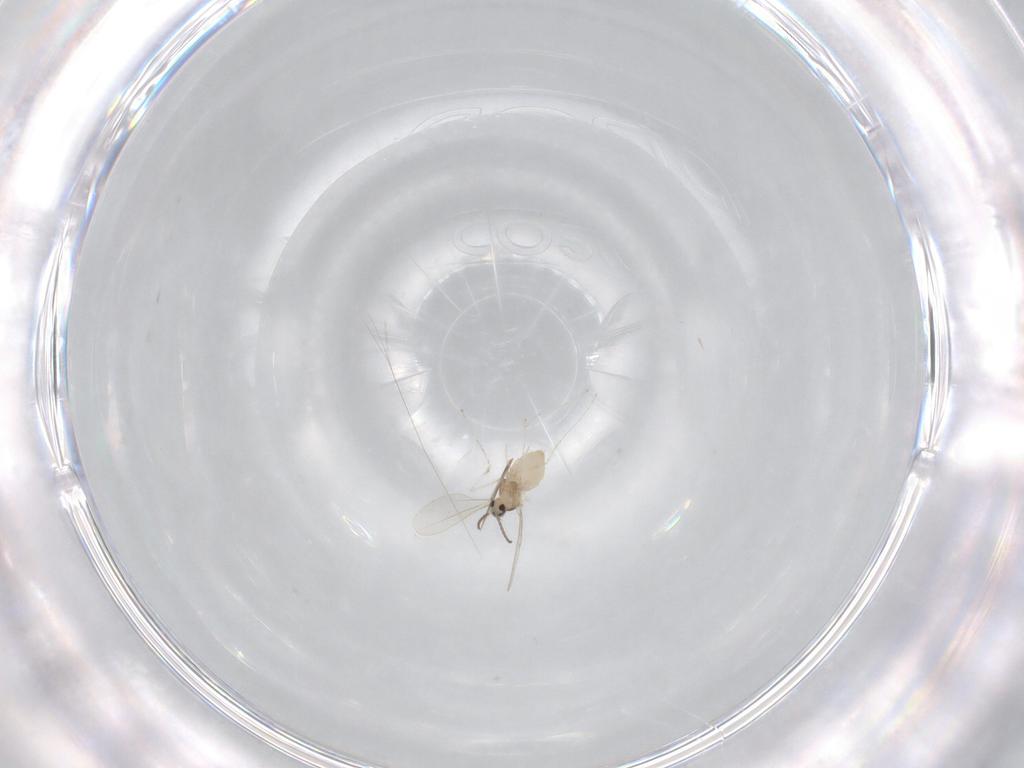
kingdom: Animalia
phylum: Arthropoda
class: Insecta
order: Diptera
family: Cecidomyiidae
